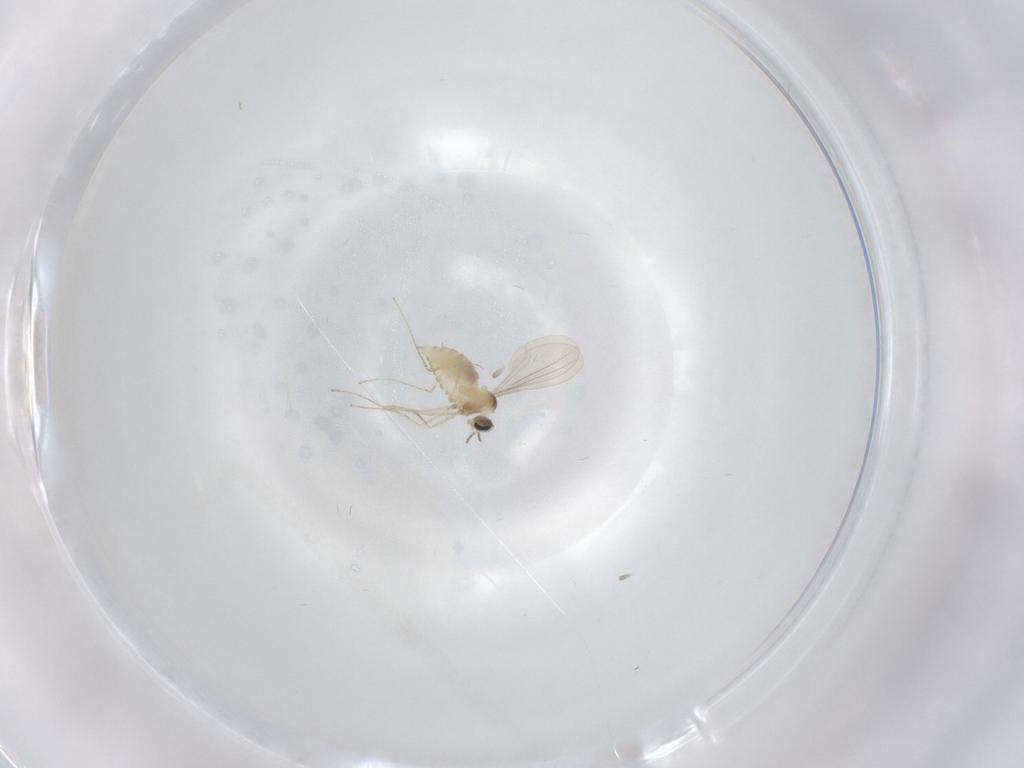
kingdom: Animalia
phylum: Arthropoda
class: Insecta
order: Diptera
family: Cecidomyiidae
